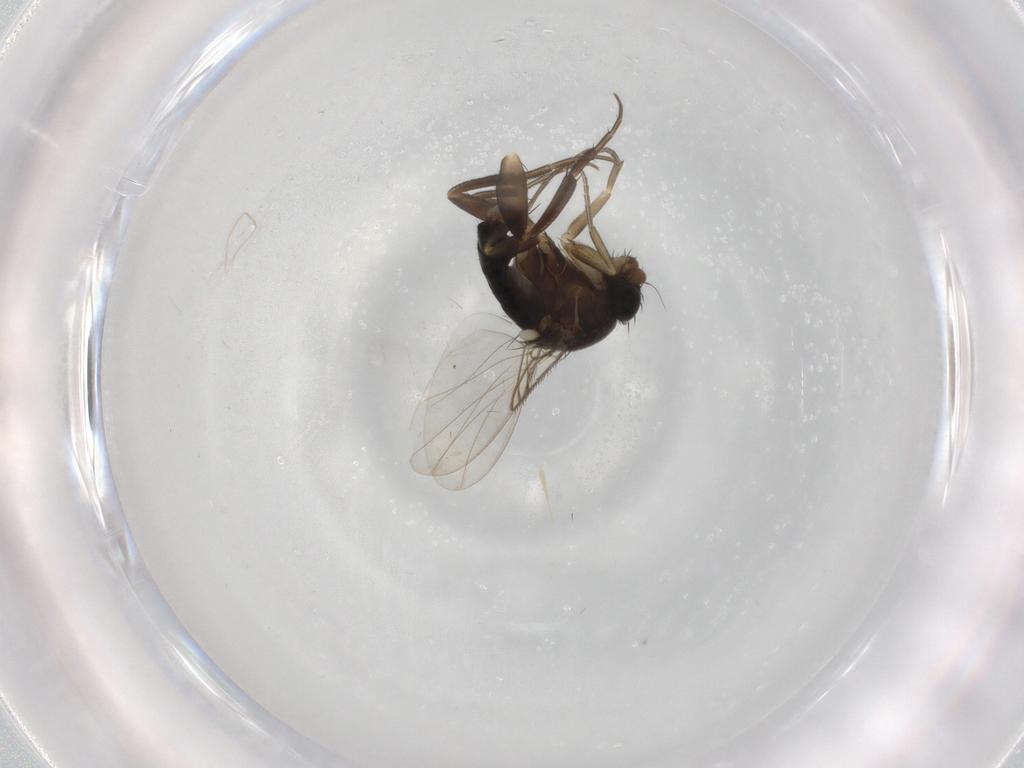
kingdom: Animalia
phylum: Arthropoda
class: Insecta
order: Diptera
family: Phoridae
